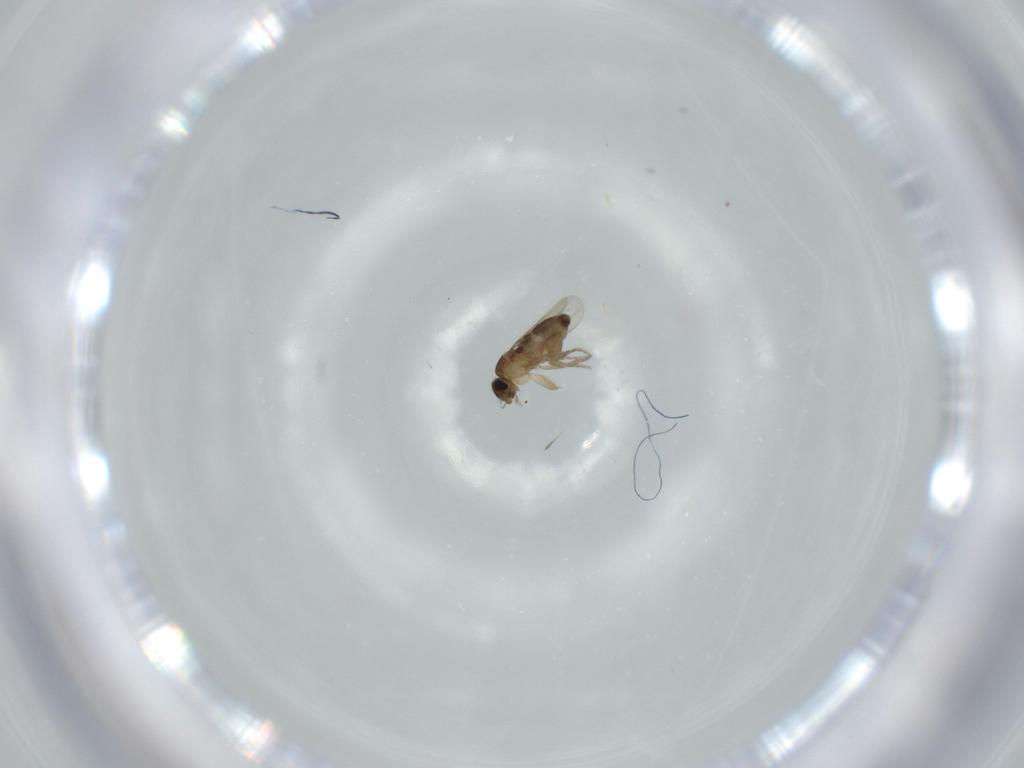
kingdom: Animalia
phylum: Arthropoda
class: Insecta
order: Diptera
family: Phoridae
